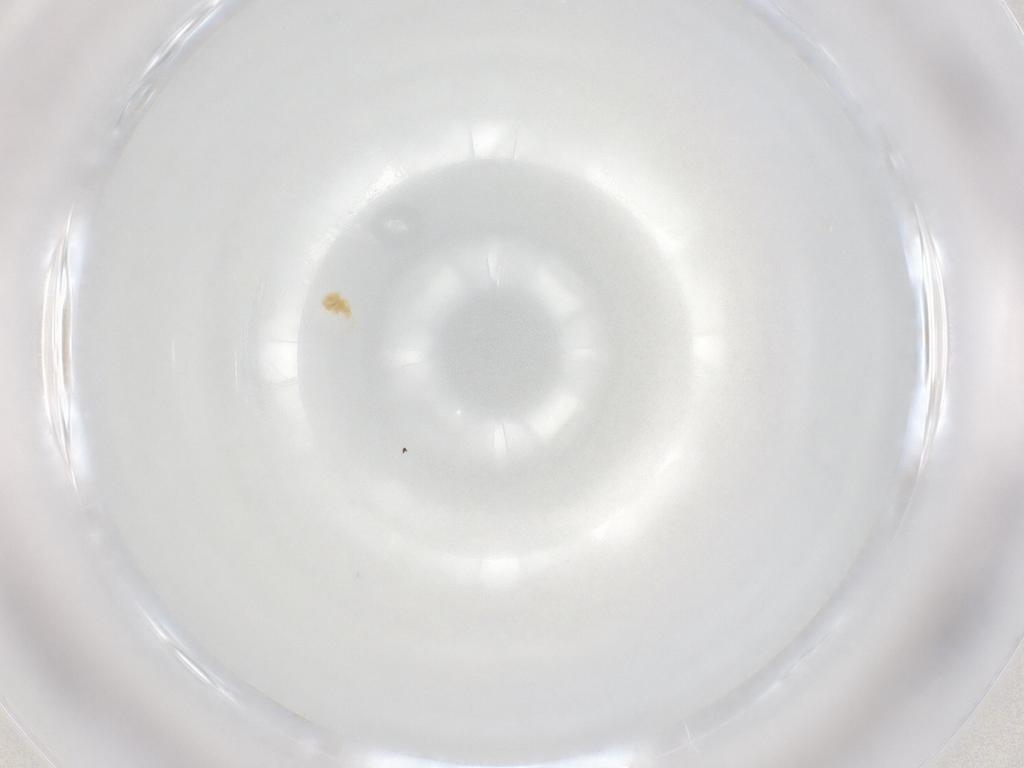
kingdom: Animalia
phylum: Arthropoda
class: Arachnida
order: Trombidiformes
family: Eupodidae
